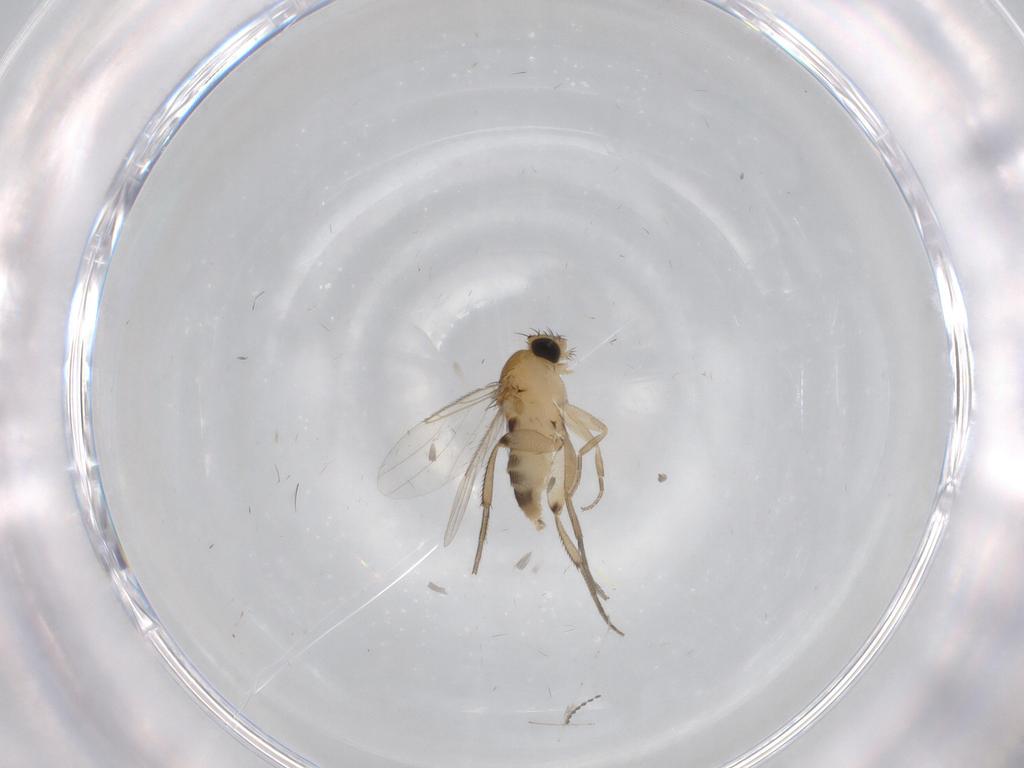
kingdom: Animalia
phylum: Arthropoda
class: Insecta
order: Diptera
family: Cecidomyiidae
